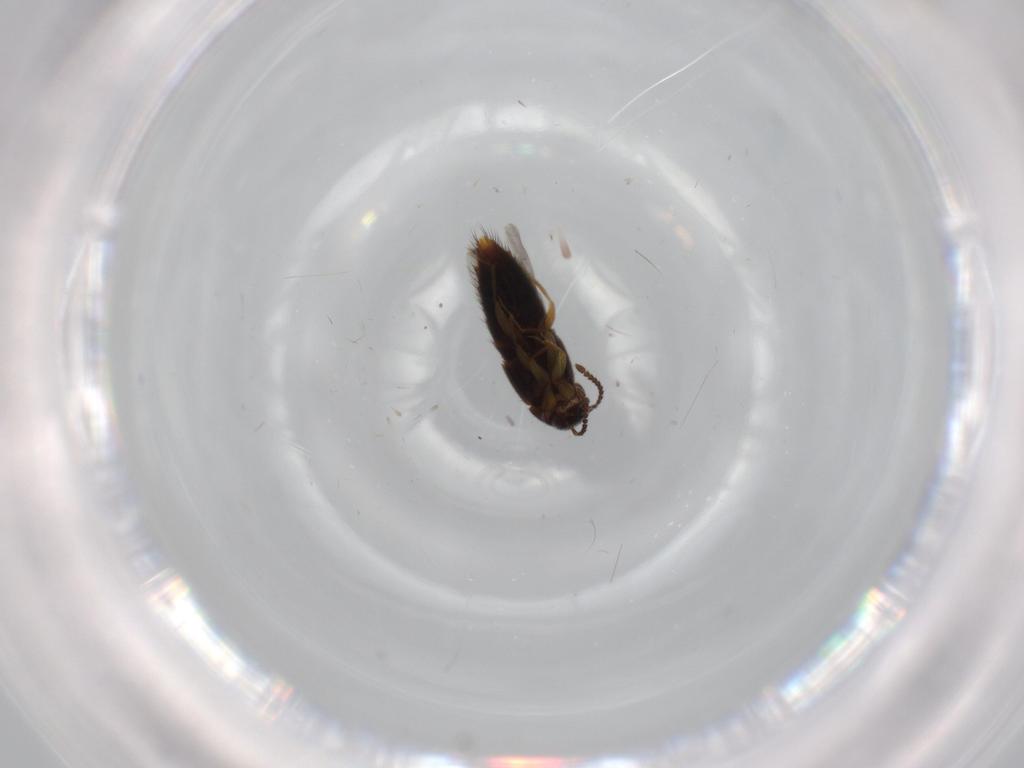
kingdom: Animalia
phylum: Arthropoda
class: Insecta
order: Coleoptera
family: Staphylinidae
